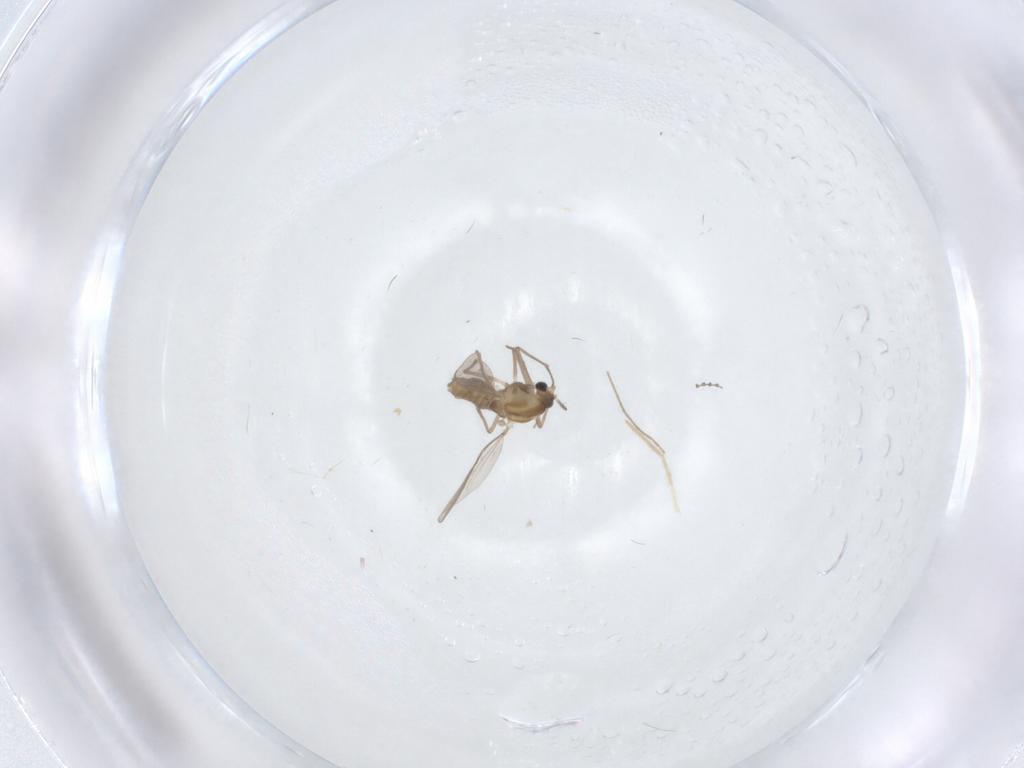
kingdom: Animalia
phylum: Arthropoda
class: Insecta
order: Diptera
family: Chironomidae
